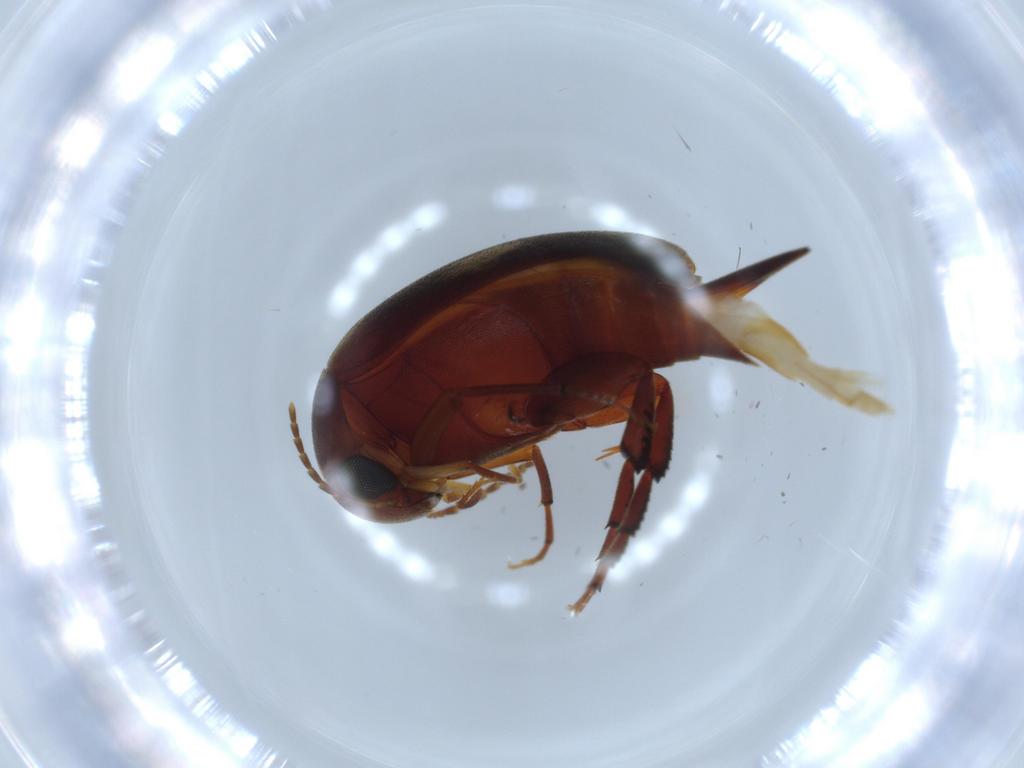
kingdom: Animalia
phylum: Arthropoda
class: Insecta
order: Coleoptera
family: Mordellidae
